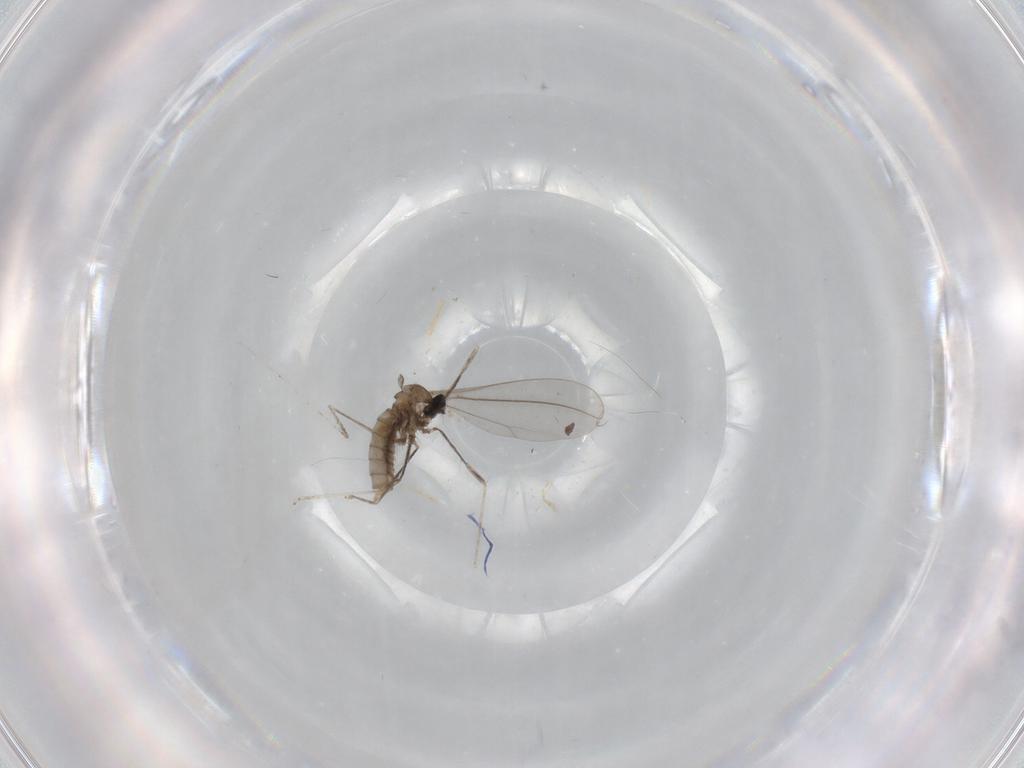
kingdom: Animalia
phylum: Arthropoda
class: Insecta
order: Diptera
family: Cecidomyiidae
